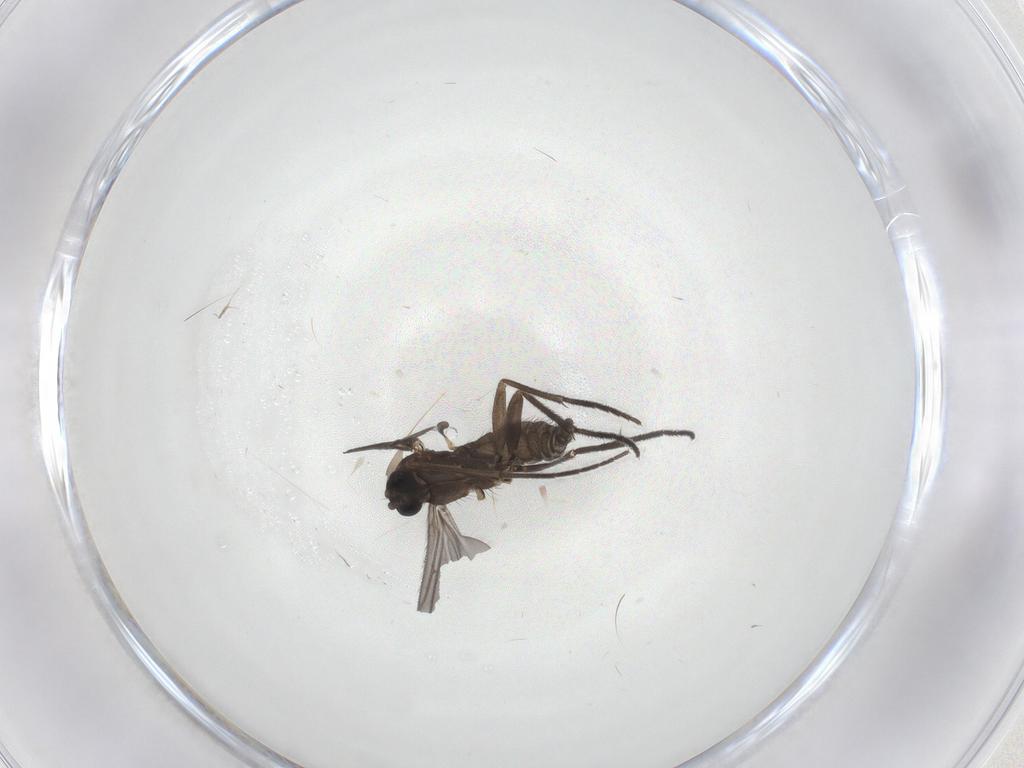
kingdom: Animalia
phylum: Arthropoda
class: Insecta
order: Diptera
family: Sciaridae
